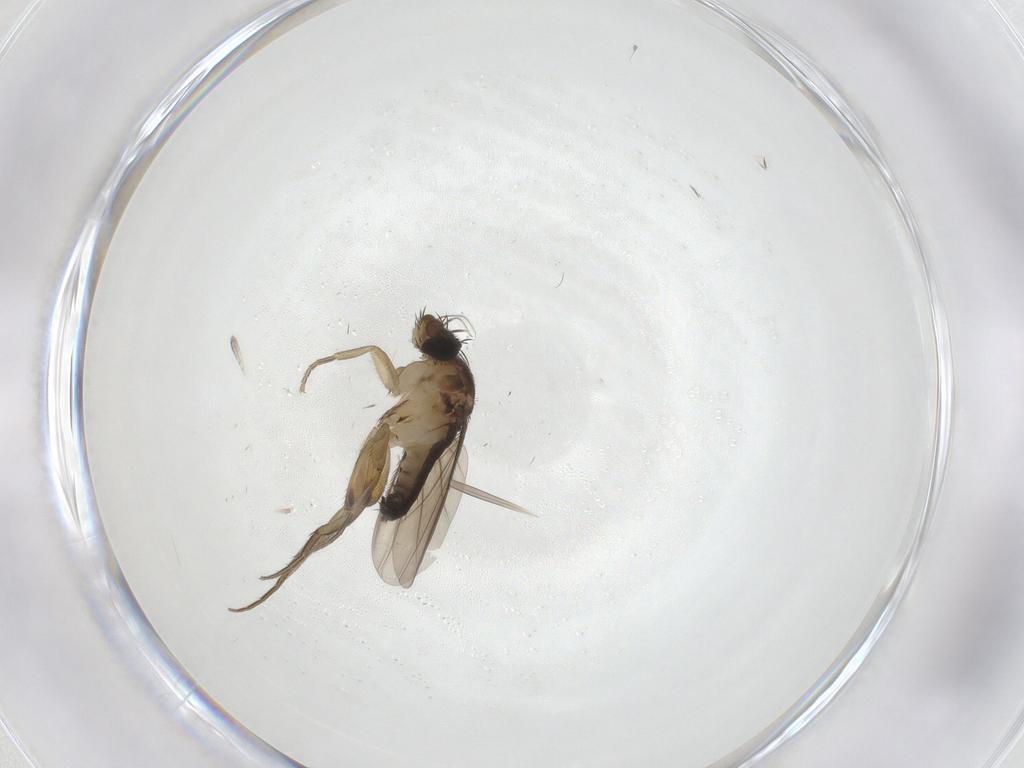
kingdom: Animalia
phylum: Arthropoda
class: Insecta
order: Diptera
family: Phoridae
